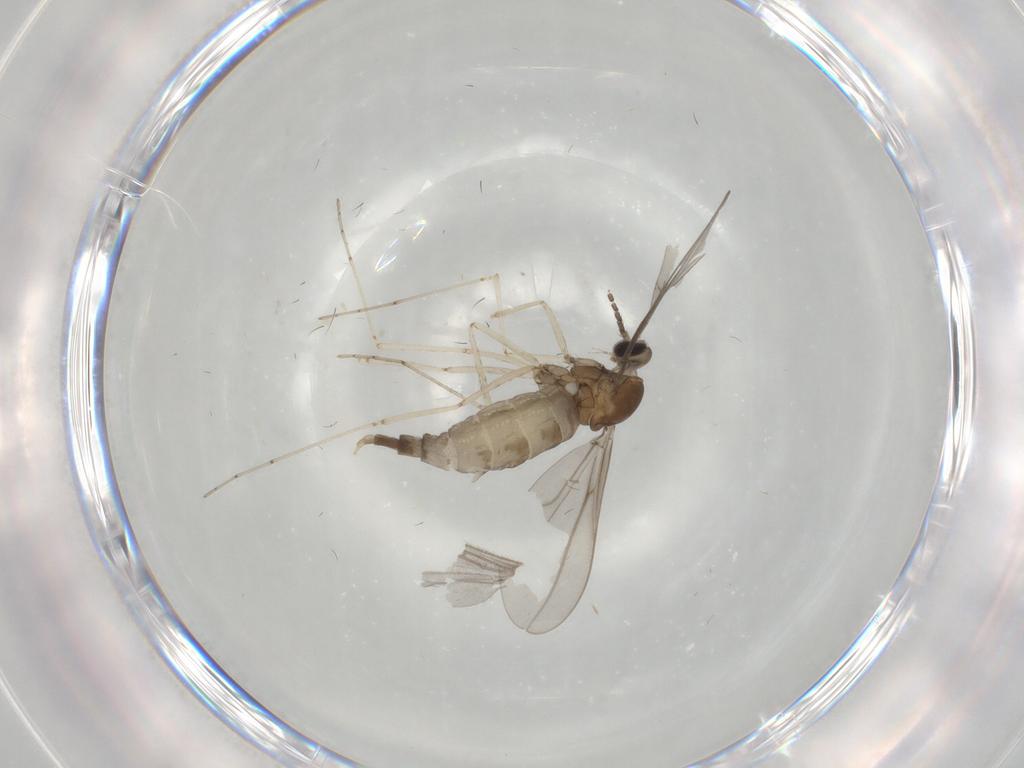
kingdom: Animalia
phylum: Arthropoda
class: Insecta
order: Diptera
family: Cecidomyiidae
